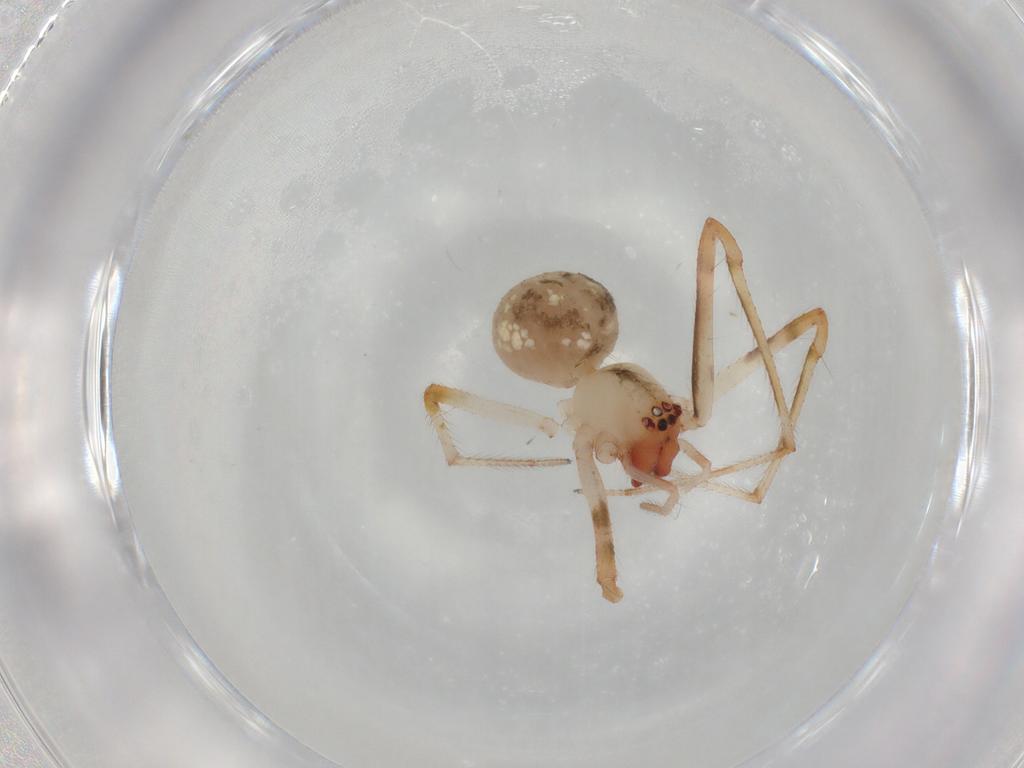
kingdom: Animalia
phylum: Arthropoda
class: Arachnida
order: Araneae
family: Theridiidae
